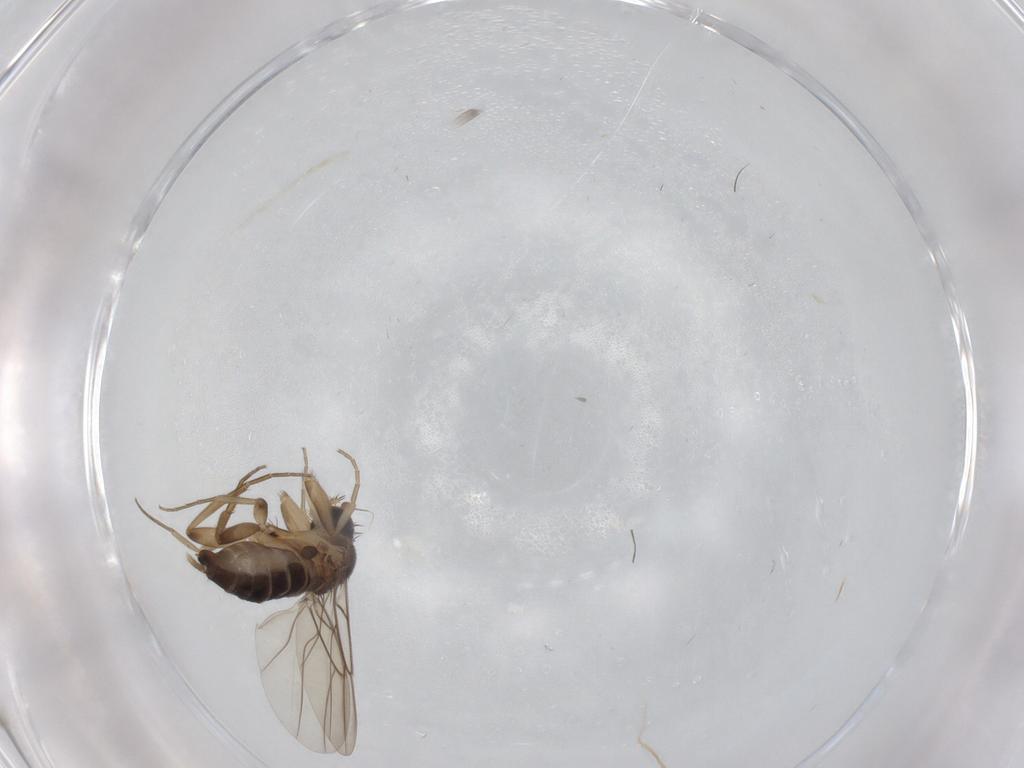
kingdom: Animalia
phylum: Arthropoda
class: Insecta
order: Diptera
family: Phoridae
